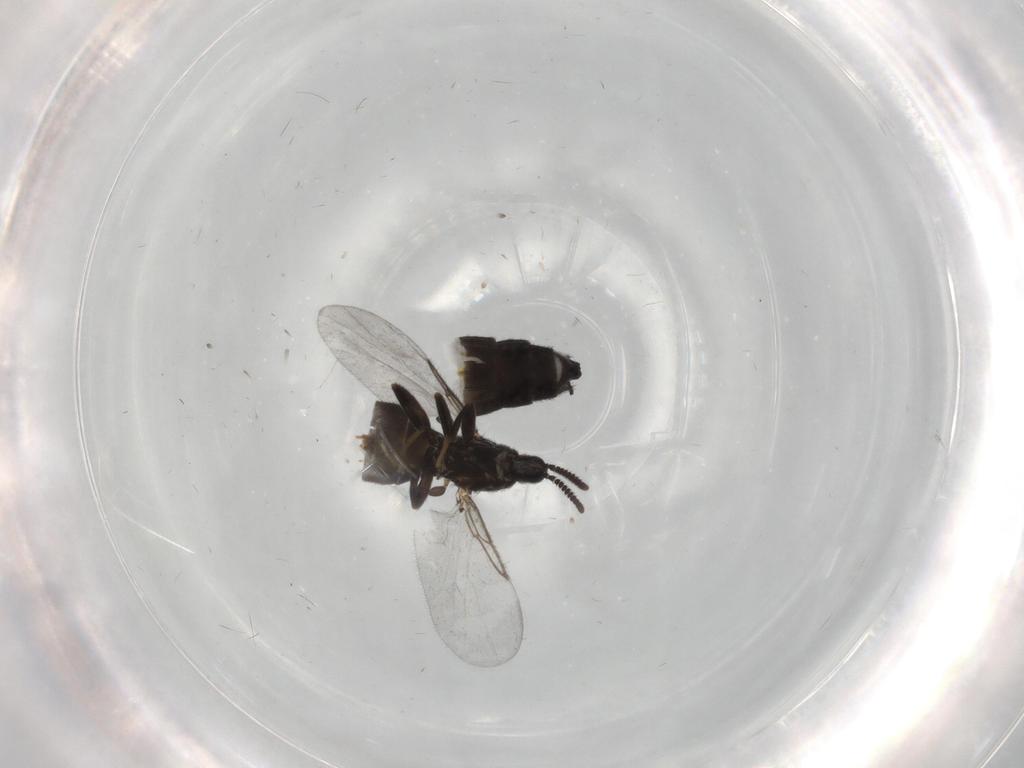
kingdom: Animalia
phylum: Arthropoda
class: Insecta
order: Diptera
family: Scatopsidae
